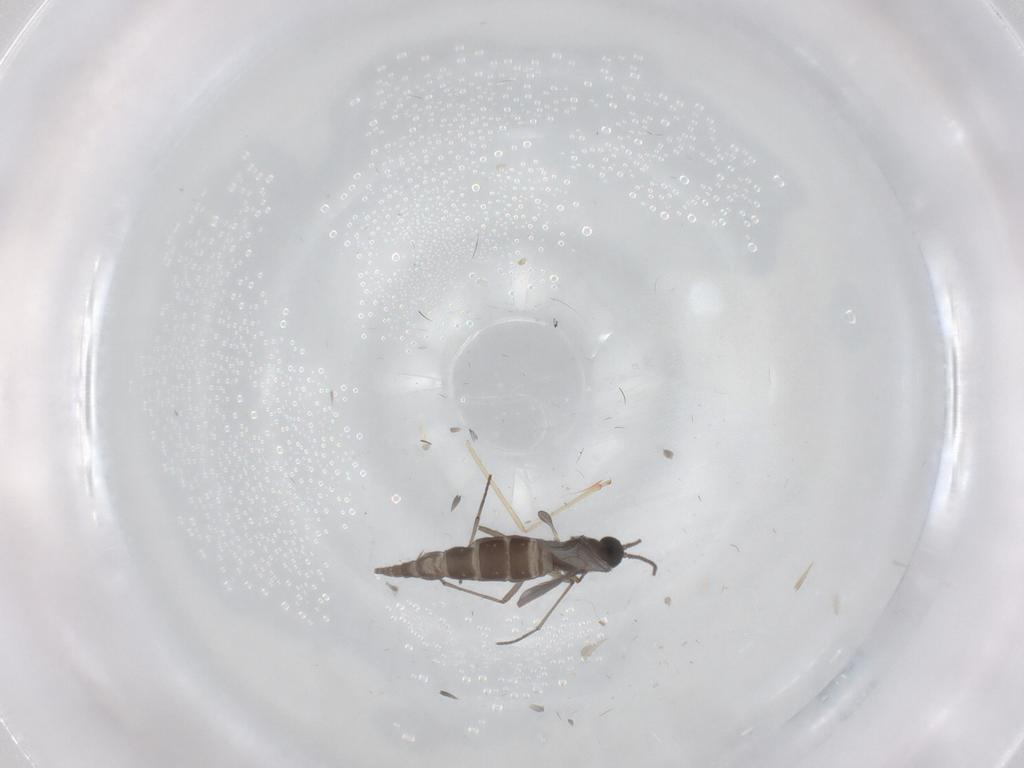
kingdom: Animalia
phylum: Arthropoda
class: Insecta
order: Diptera
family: Sciaridae
